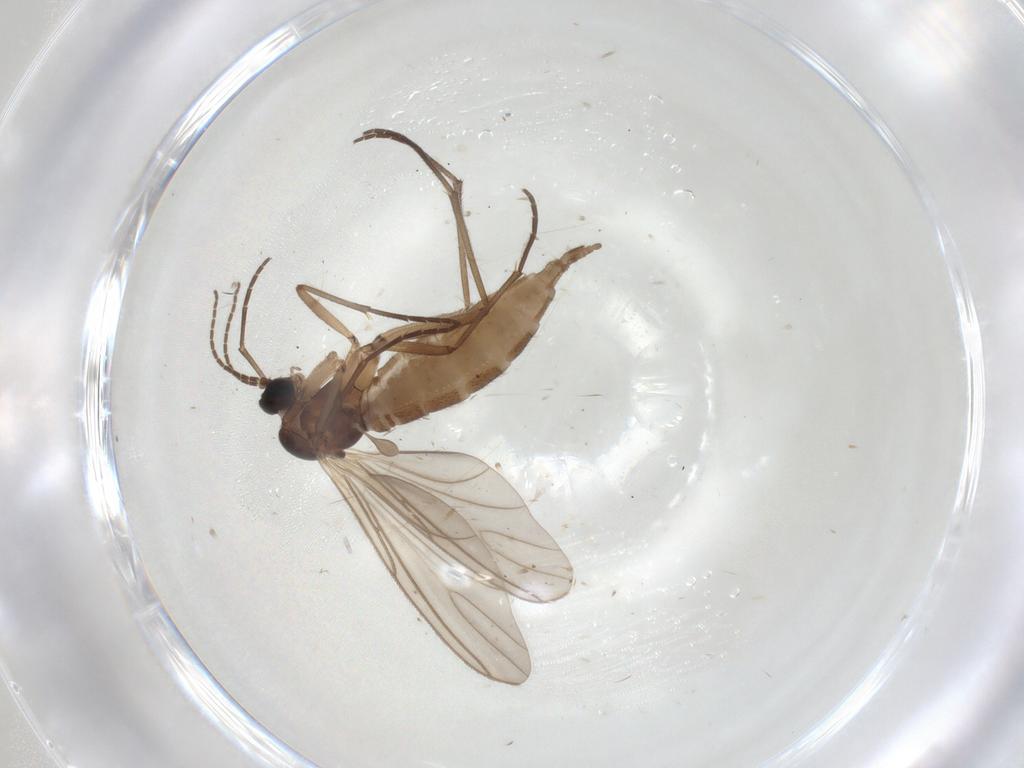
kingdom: Animalia
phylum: Arthropoda
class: Insecta
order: Diptera
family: Sciaridae
